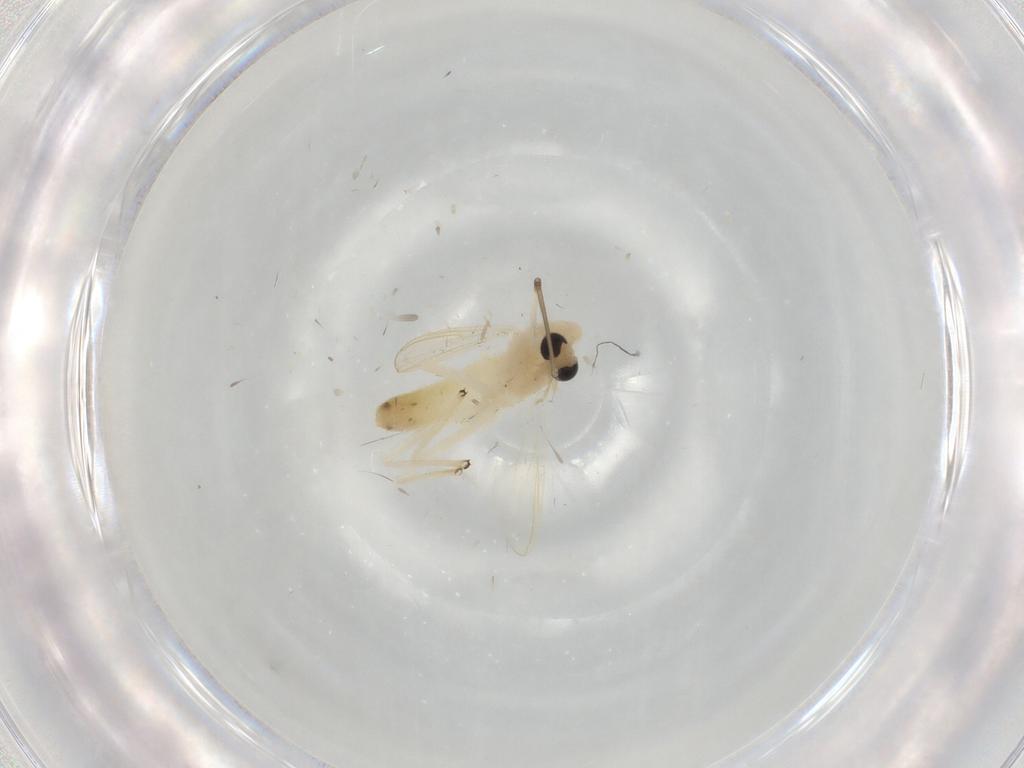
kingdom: Animalia
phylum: Arthropoda
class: Insecta
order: Diptera
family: Chironomidae
